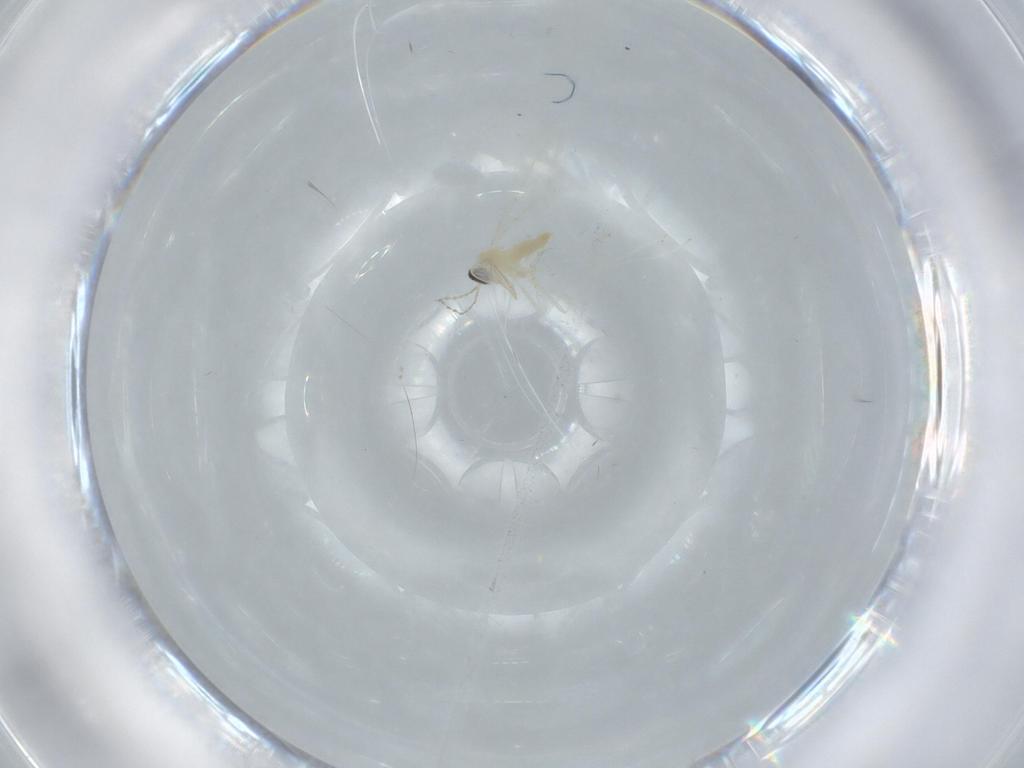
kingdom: Animalia
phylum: Arthropoda
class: Insecta
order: Diptera
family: Cecidomyiidae
